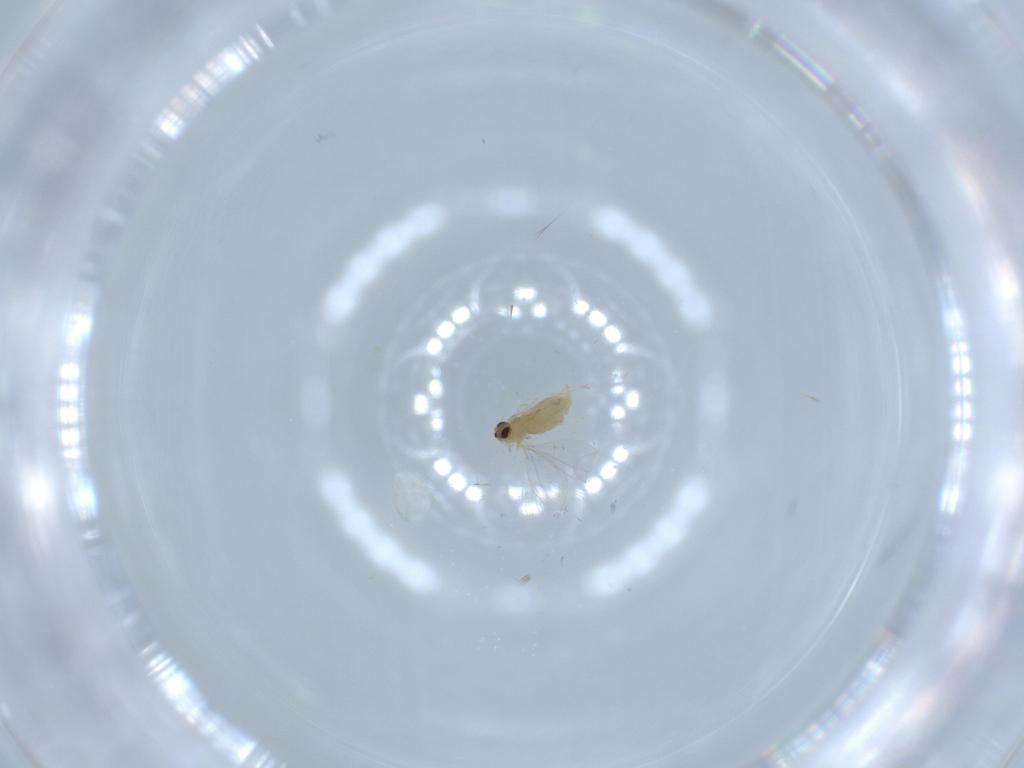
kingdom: Animalia
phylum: Arthropoda
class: Insecta
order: Diptera
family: Cecidomyiidae
